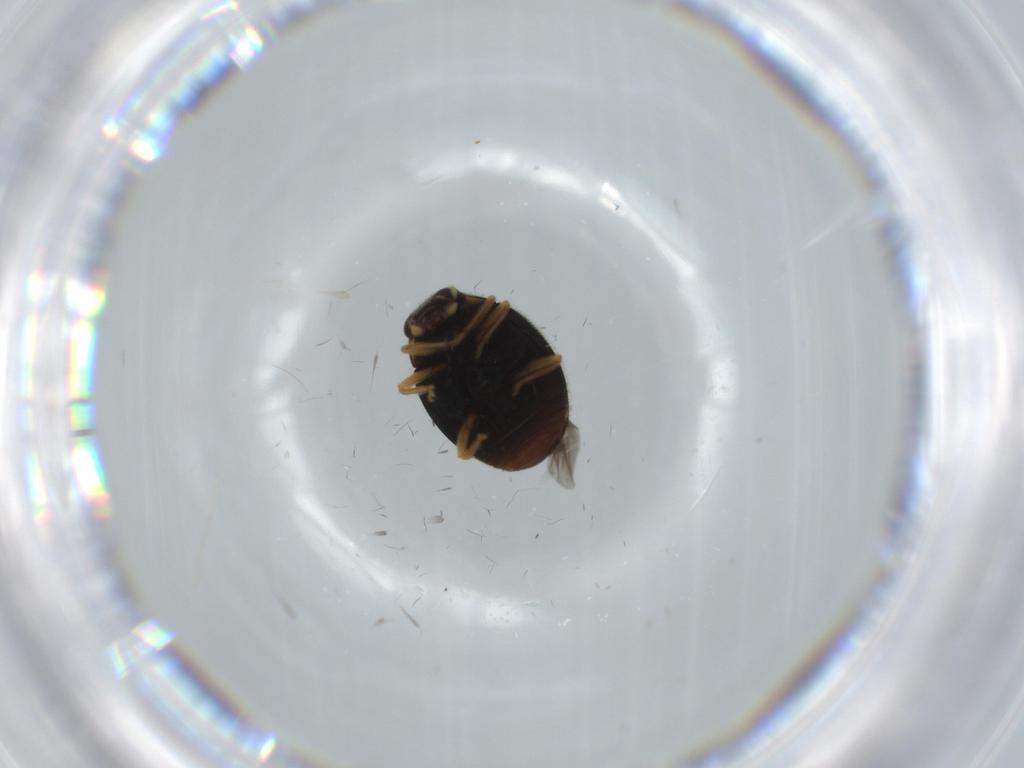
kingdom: Animalia
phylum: Arthropoda
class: Insecta
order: Coleoptera
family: Coccinellidae
